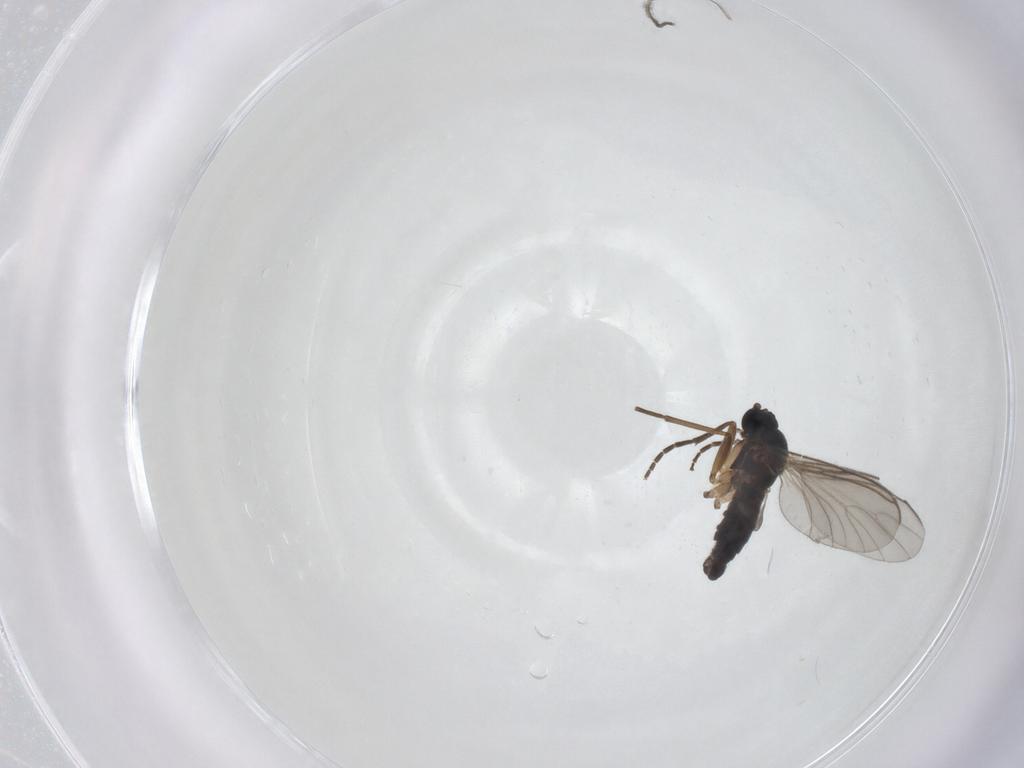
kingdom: Animalia
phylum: Arthropoda
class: Insecta
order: Diptera
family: Sciaridae
